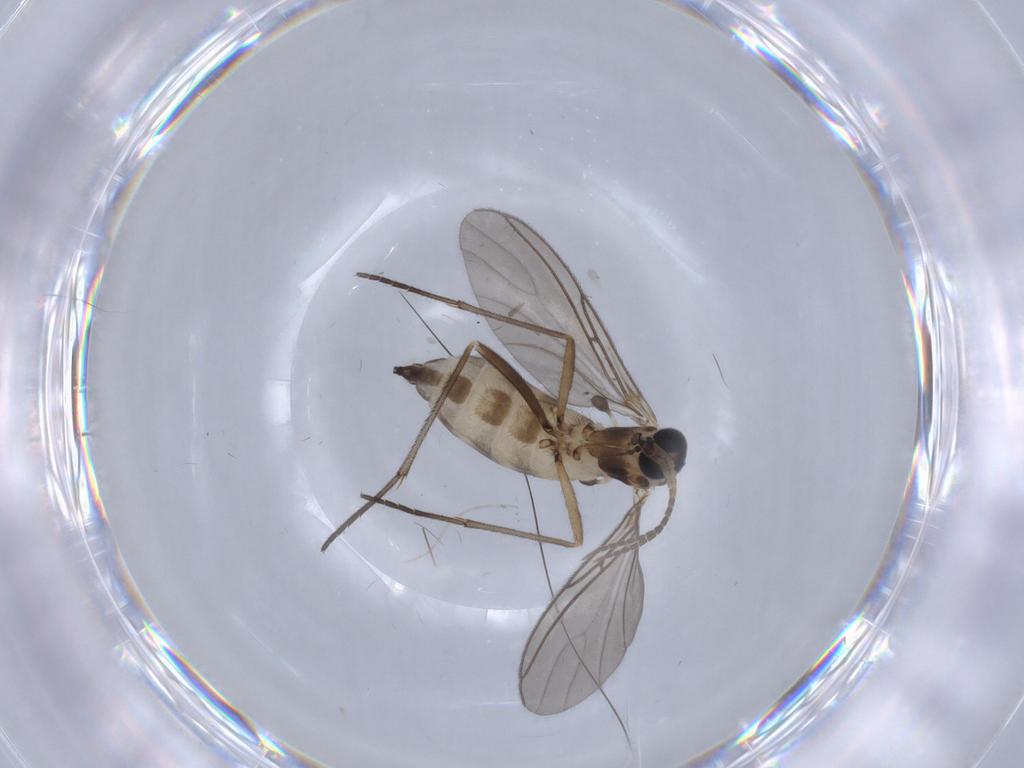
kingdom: Animalia
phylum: Arthropoda
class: Insecta
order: Diptera
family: Sciaridae
